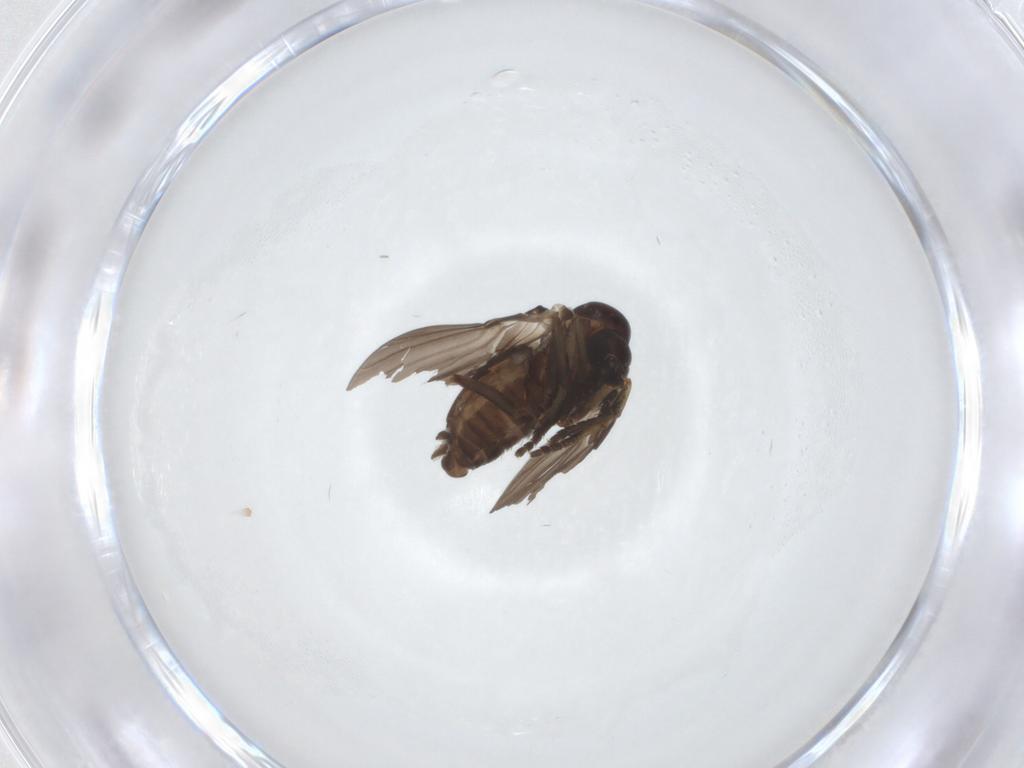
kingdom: Animalia
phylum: Arthropoda
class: Insecta
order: Diptera
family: Psychodidae
